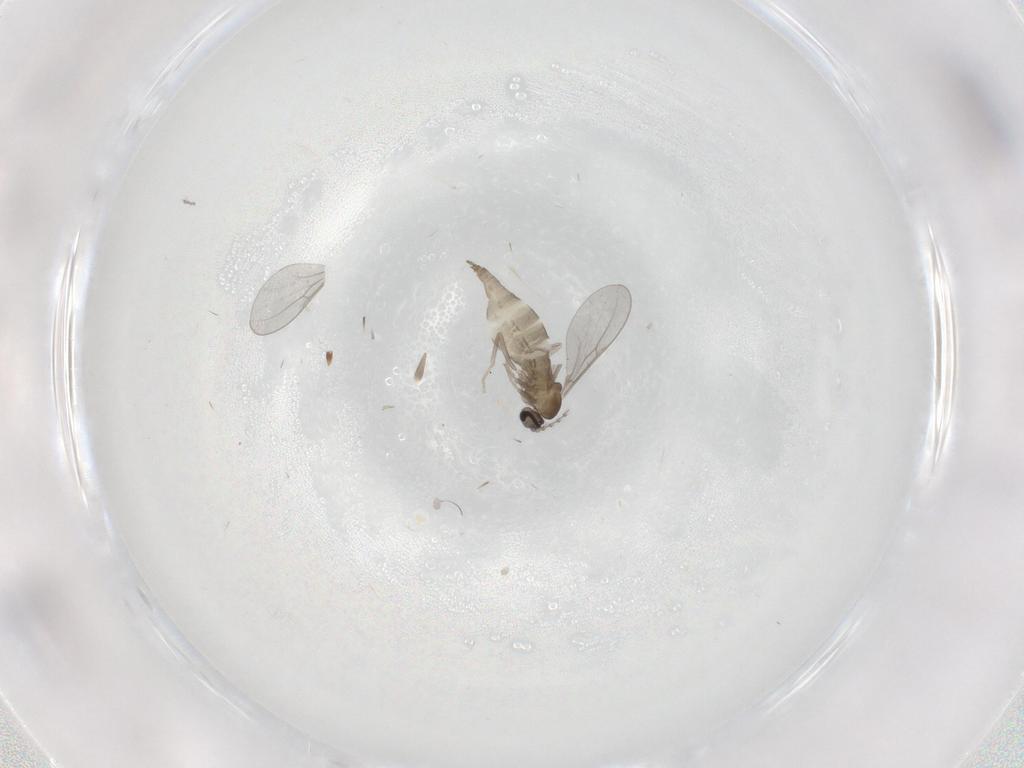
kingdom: Animalia
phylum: Arthropoda
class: Insecta
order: Diptera
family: Cecidomyiidae
